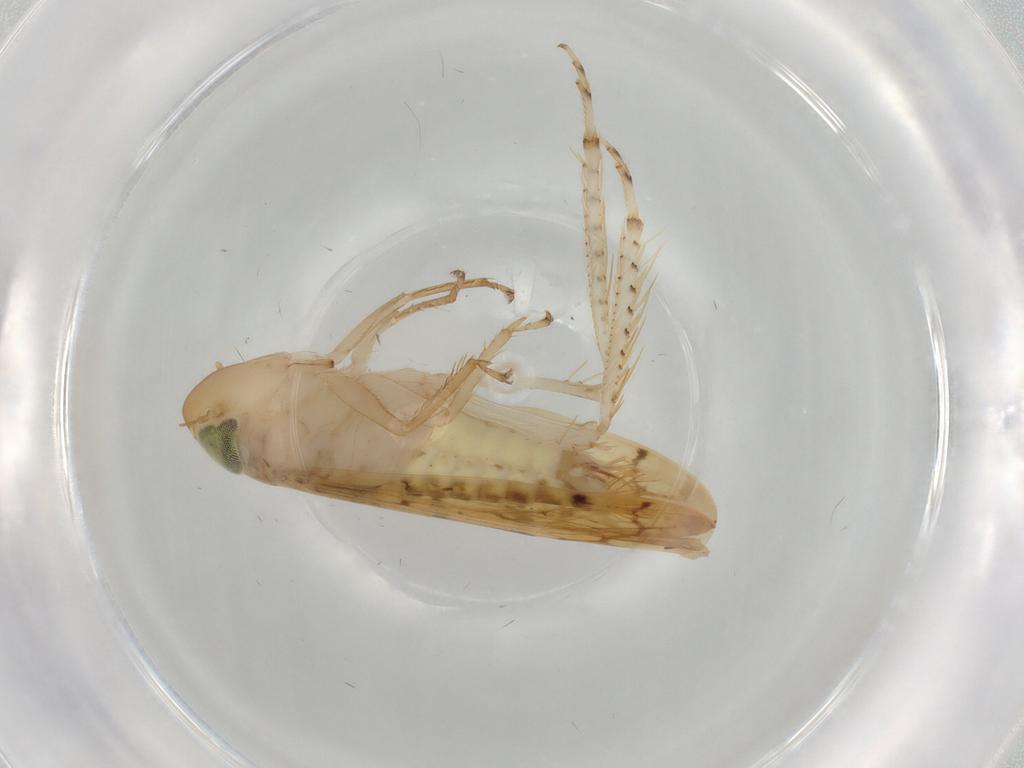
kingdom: Animalia
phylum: Arthropoda
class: Insecta
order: Hemiptera
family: Cicadellidae
